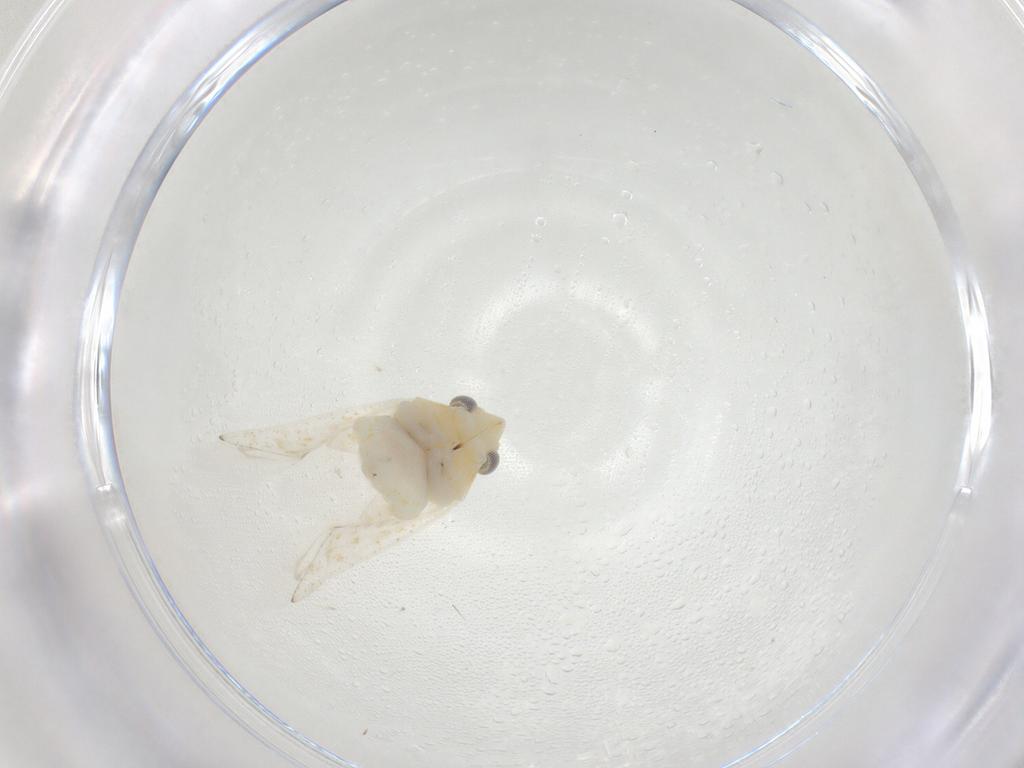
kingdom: Animalia
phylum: Arthropoda
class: Insecta
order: Hemiptera
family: Miridae
